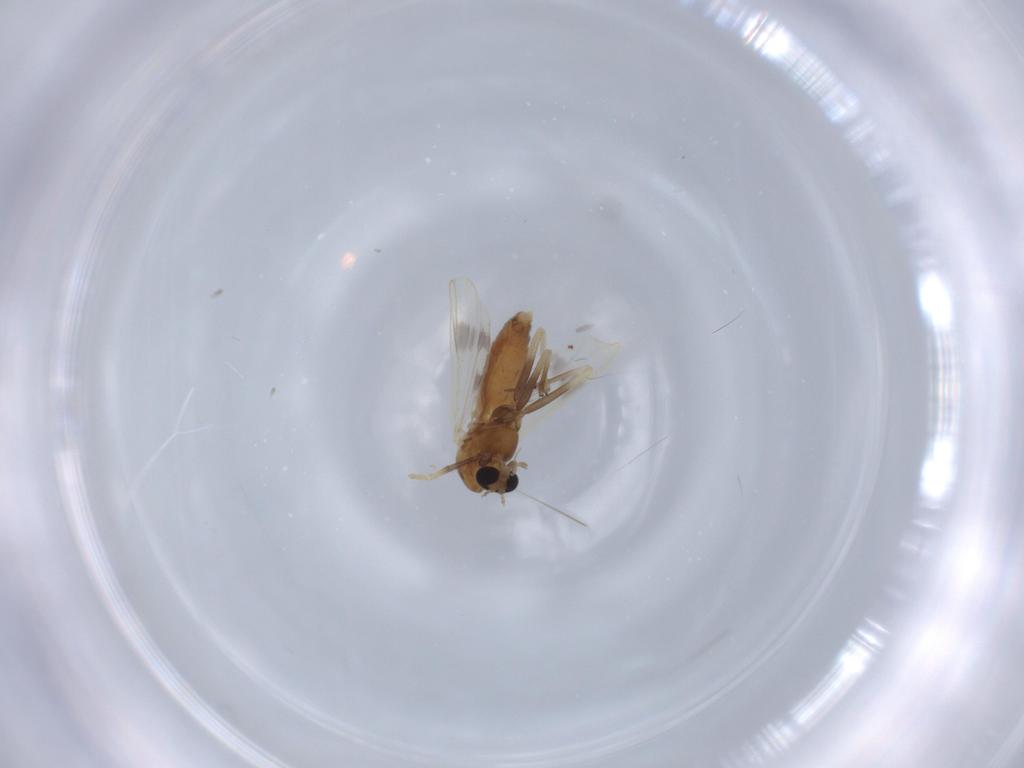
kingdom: Animalia
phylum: Arthropoda
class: Insecta
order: Diptera
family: Chironomidae
